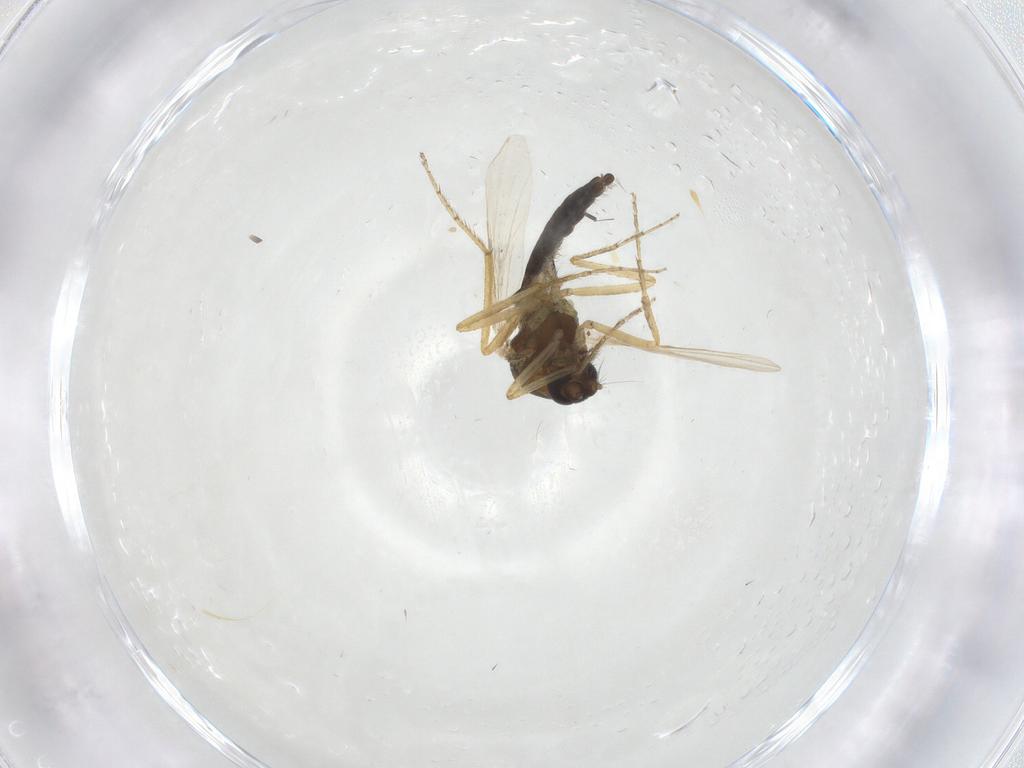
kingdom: Animalia
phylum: Arthropoda
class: Insecta
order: Diptera
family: Ceratopogonidae
